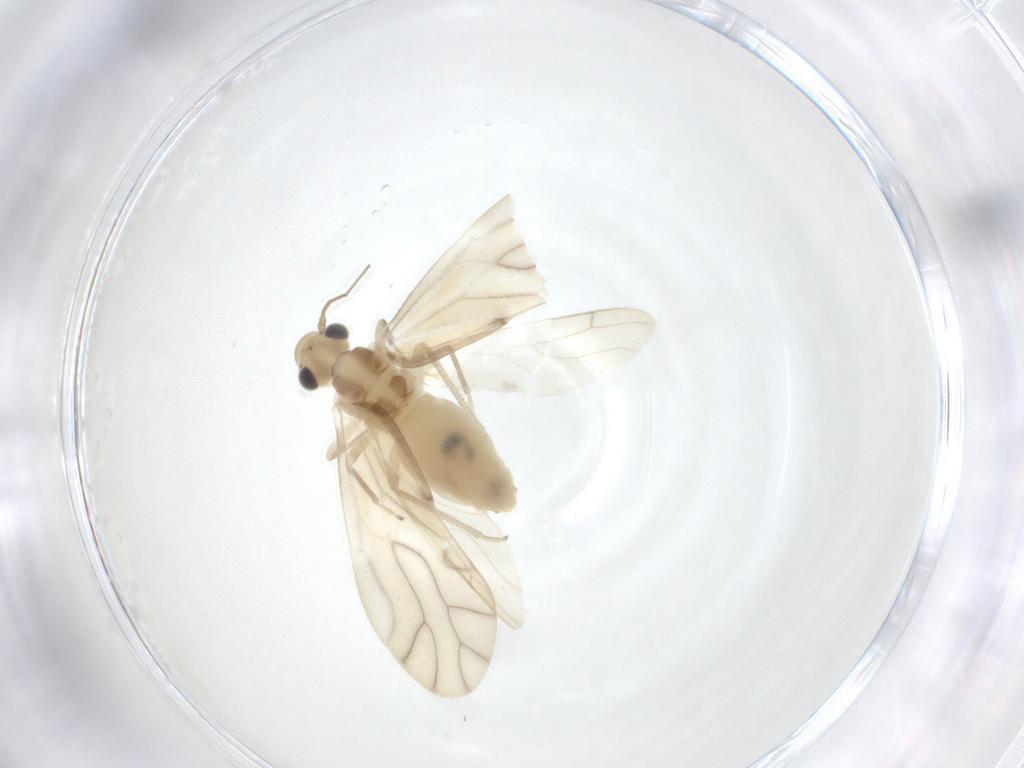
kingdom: Animalia
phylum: Arthropoda
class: Insecta
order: Psocodea
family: Caeciliusidae
